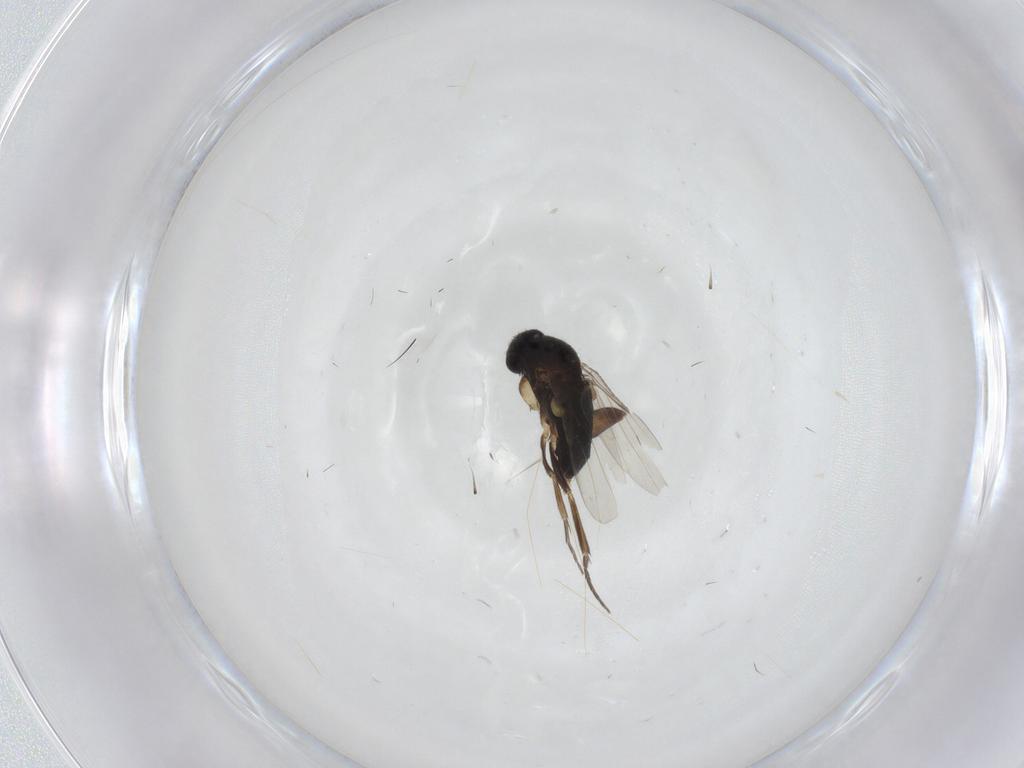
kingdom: Animalia
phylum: Arthropoda
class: Insecta
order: Diptera
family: Phoridae
